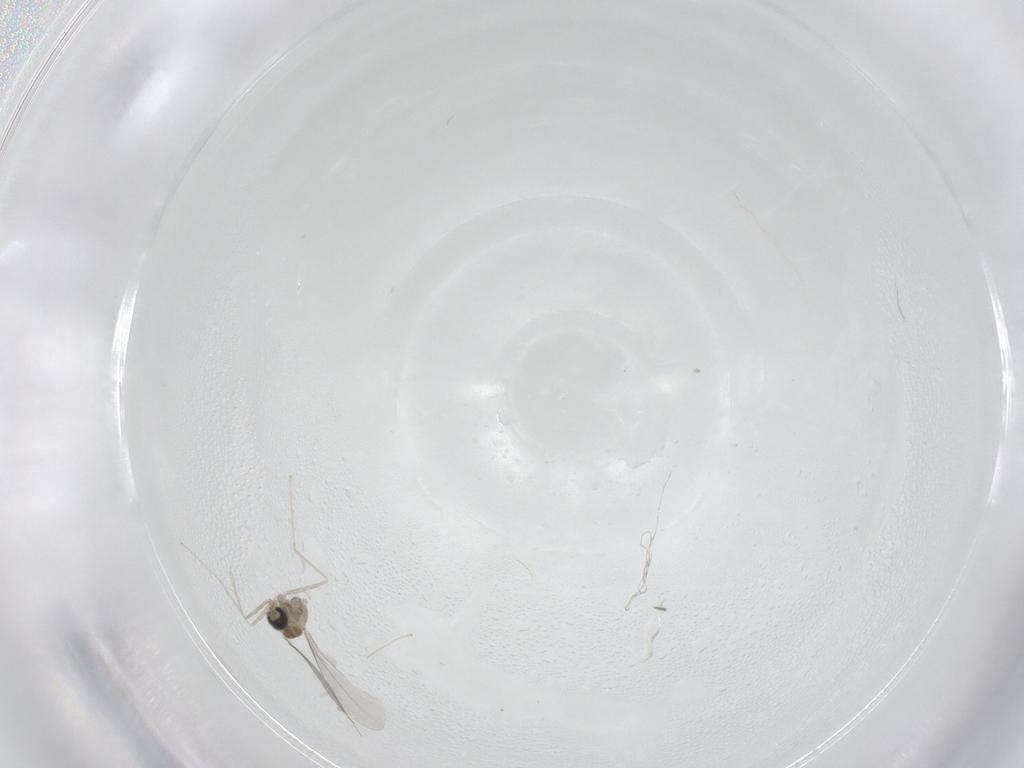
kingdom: Animalia
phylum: Arthropoda
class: Insecta
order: Diptera
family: Cecidomyiidae
